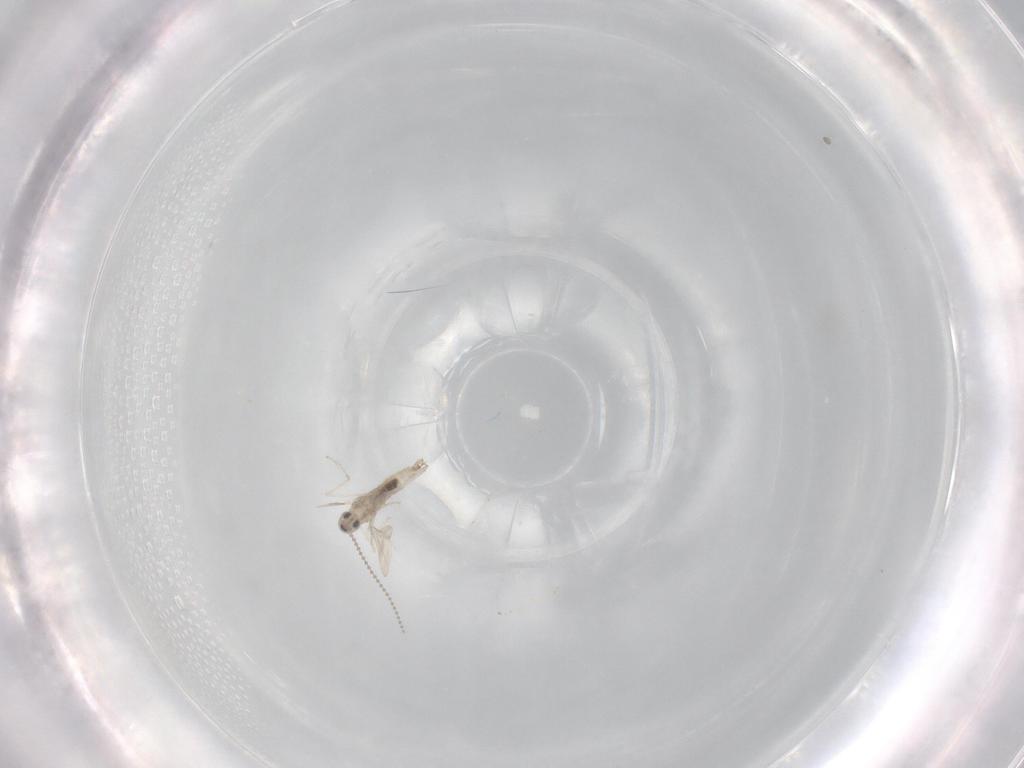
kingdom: Animalia
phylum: Arthropoda
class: Insecta
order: Diptera
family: Cecidomyiidae
